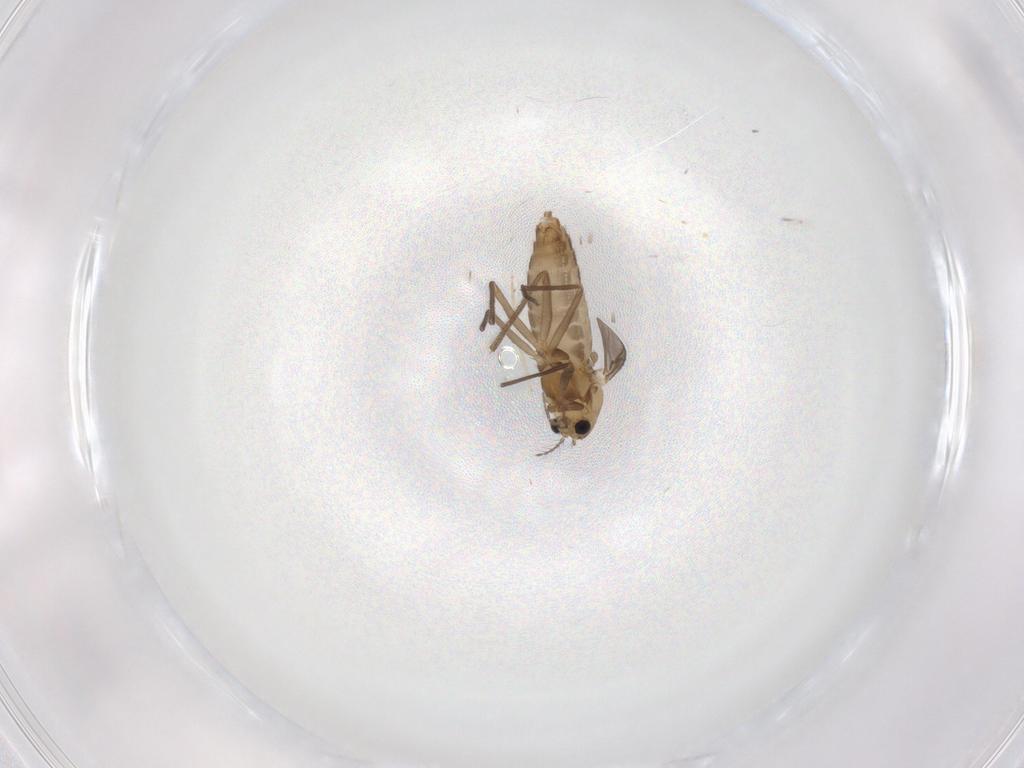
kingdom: Animalia
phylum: Arthropoda
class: Insecta
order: Diptera
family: Chironomidae
